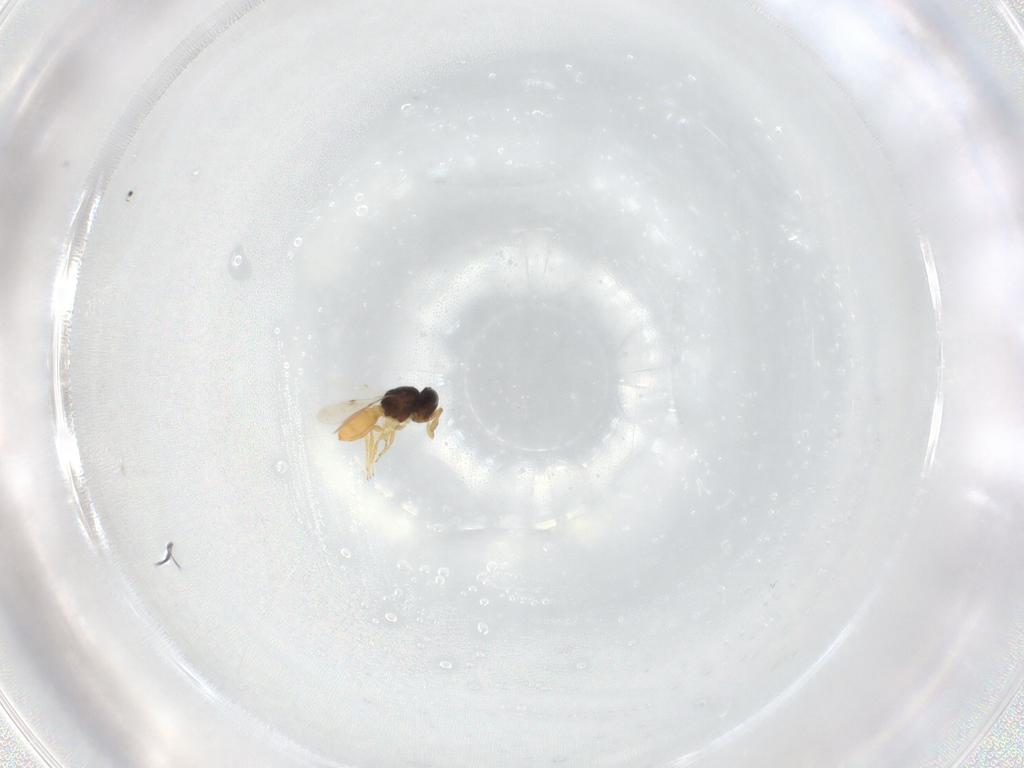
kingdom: Animalia
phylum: Arthropoda
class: Insecta
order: Hymenoptera
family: Scelionidae
